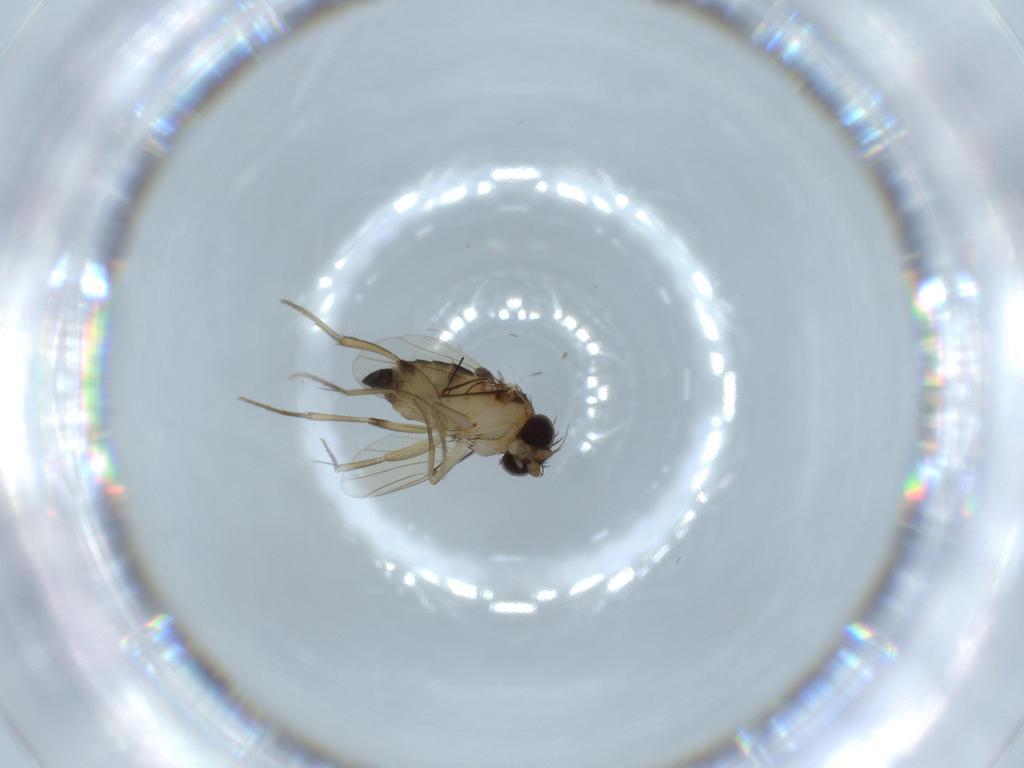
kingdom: Animalia
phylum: Arthropoda
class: Insecta
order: Diptera
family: Phoridae
